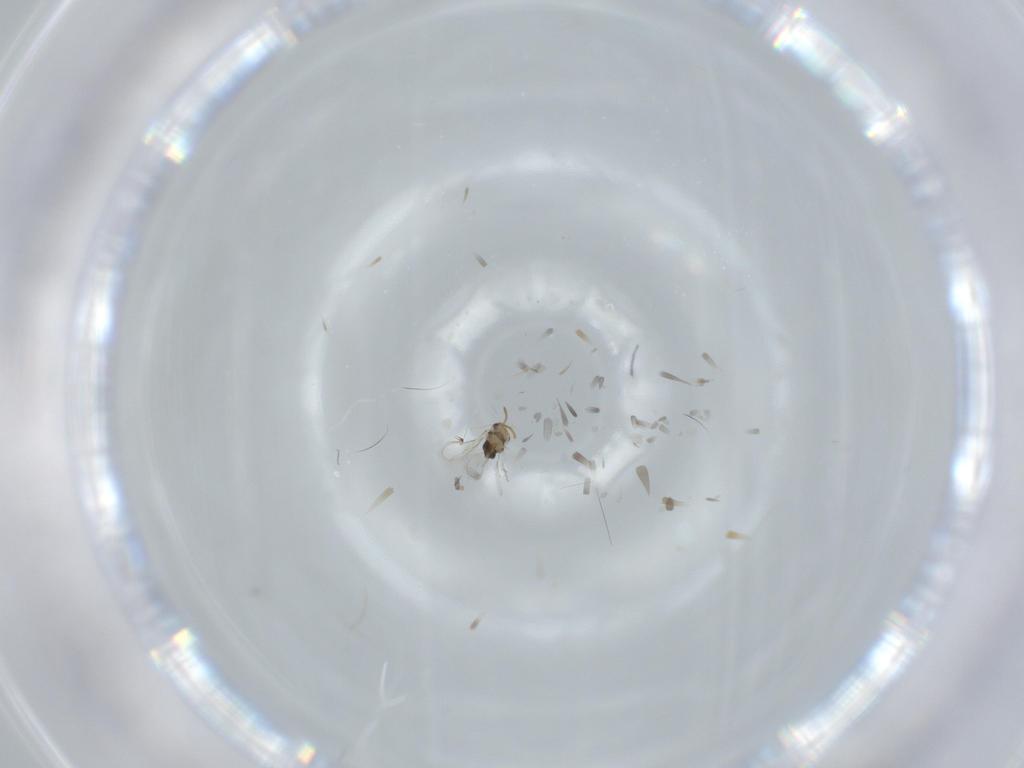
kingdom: Animalia
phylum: Arthropoda
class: Insecta
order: Hymenoptera
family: Aphelinidae
